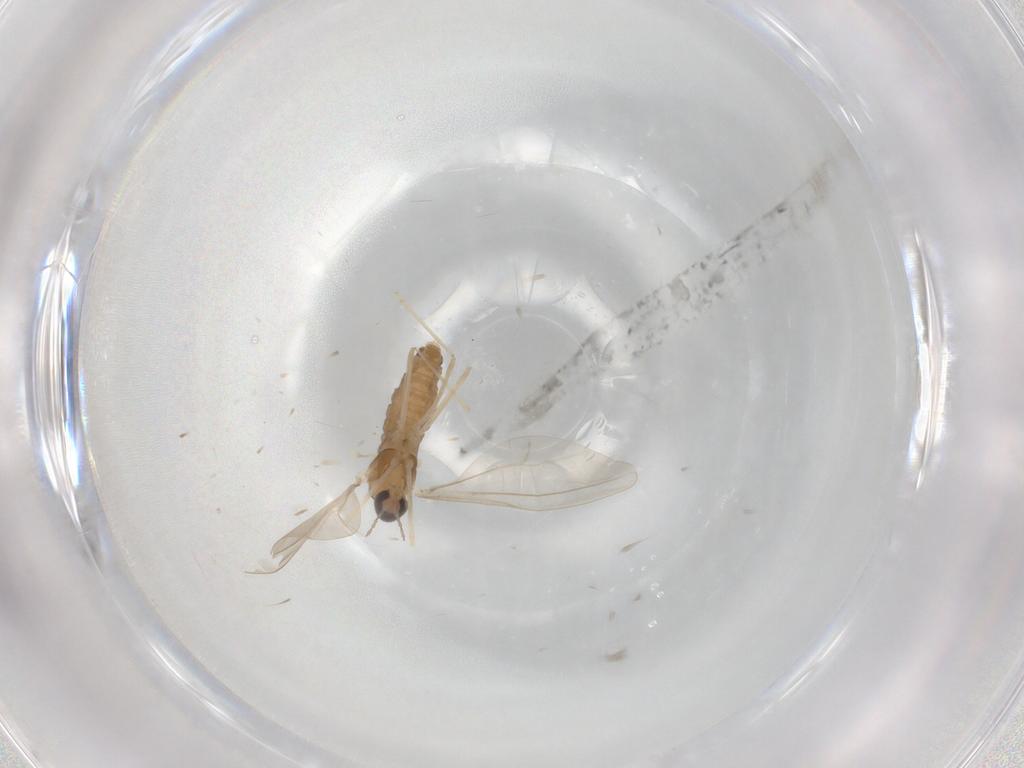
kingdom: Animalia
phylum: Arthropoda
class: Insecta
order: Diptera
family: Cecidomyiidae
